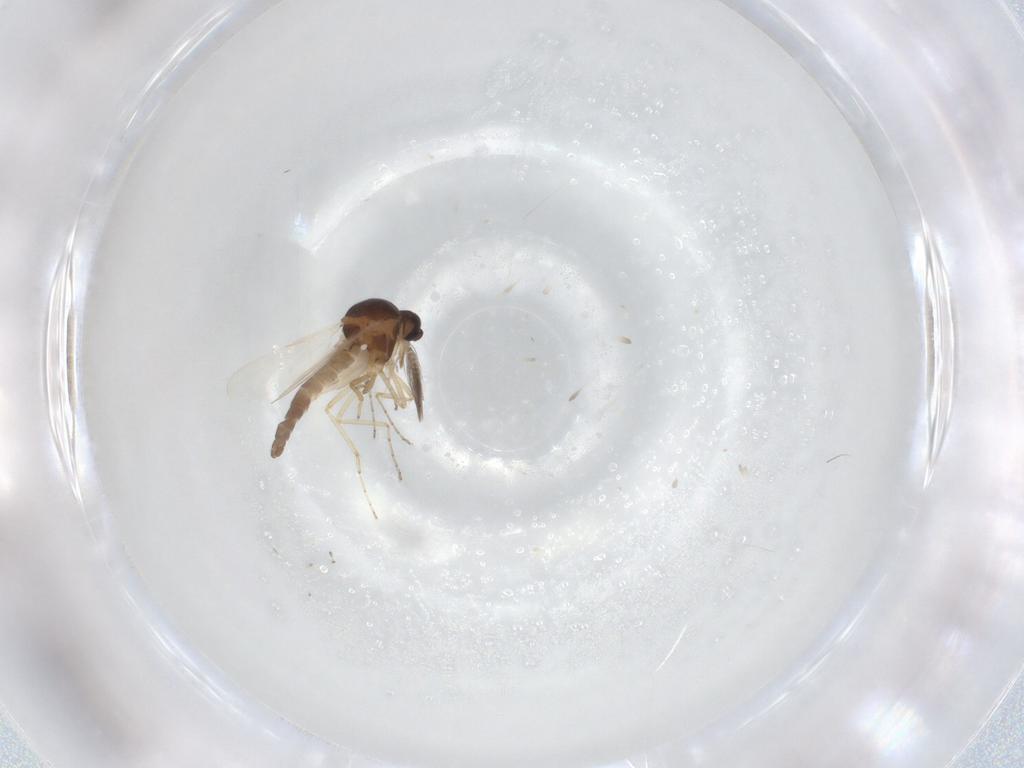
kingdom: Animalia
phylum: Arthropoda
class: Insecta
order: Diptera
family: Ceratopogonidae
